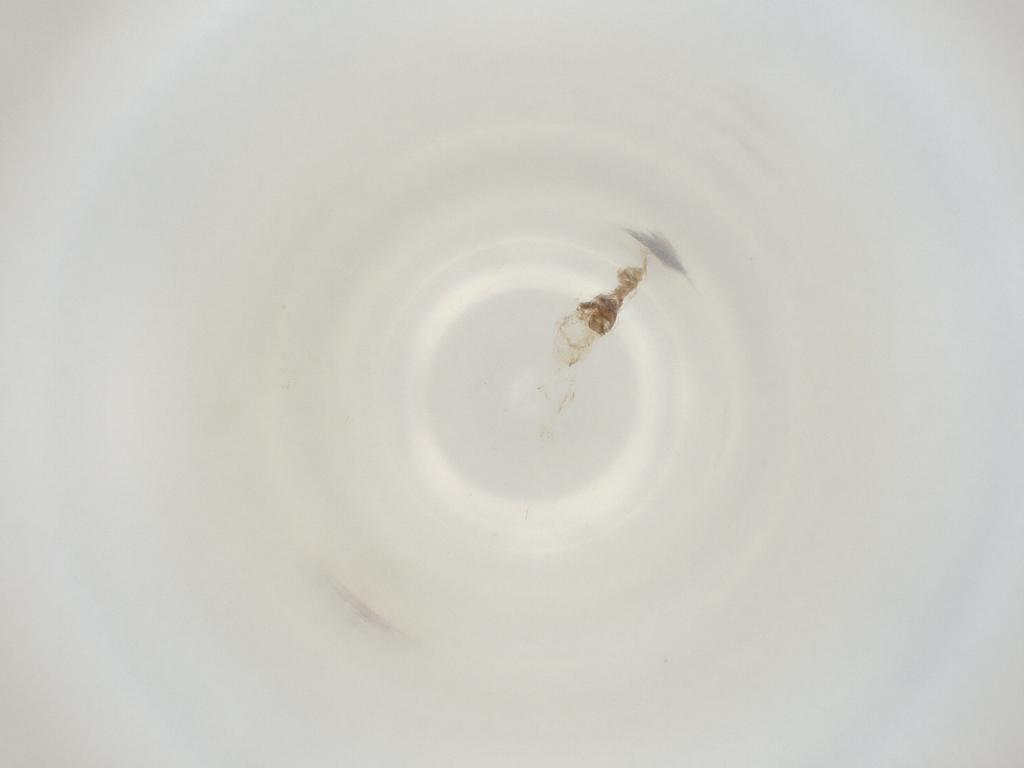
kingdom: Animalia
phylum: Arthropoda
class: Insecta
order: Diptera
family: Cecidomyiidae
